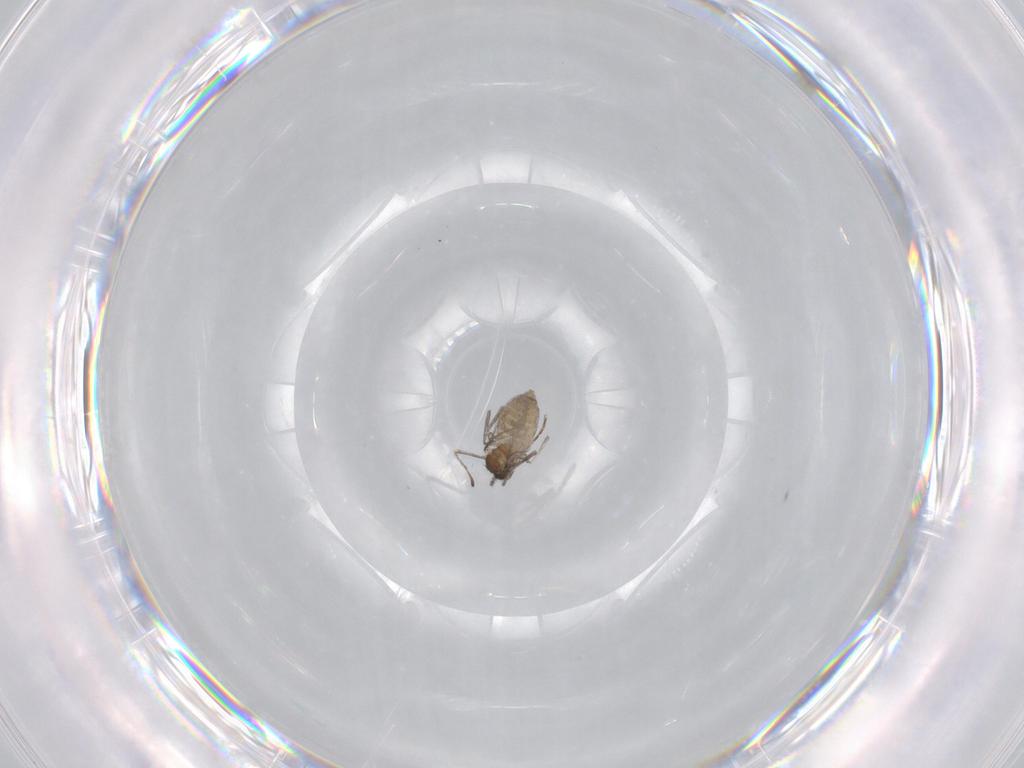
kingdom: Animalia
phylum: Arthropoda
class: Insecta
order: Diptera
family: Cecidomyiidae
